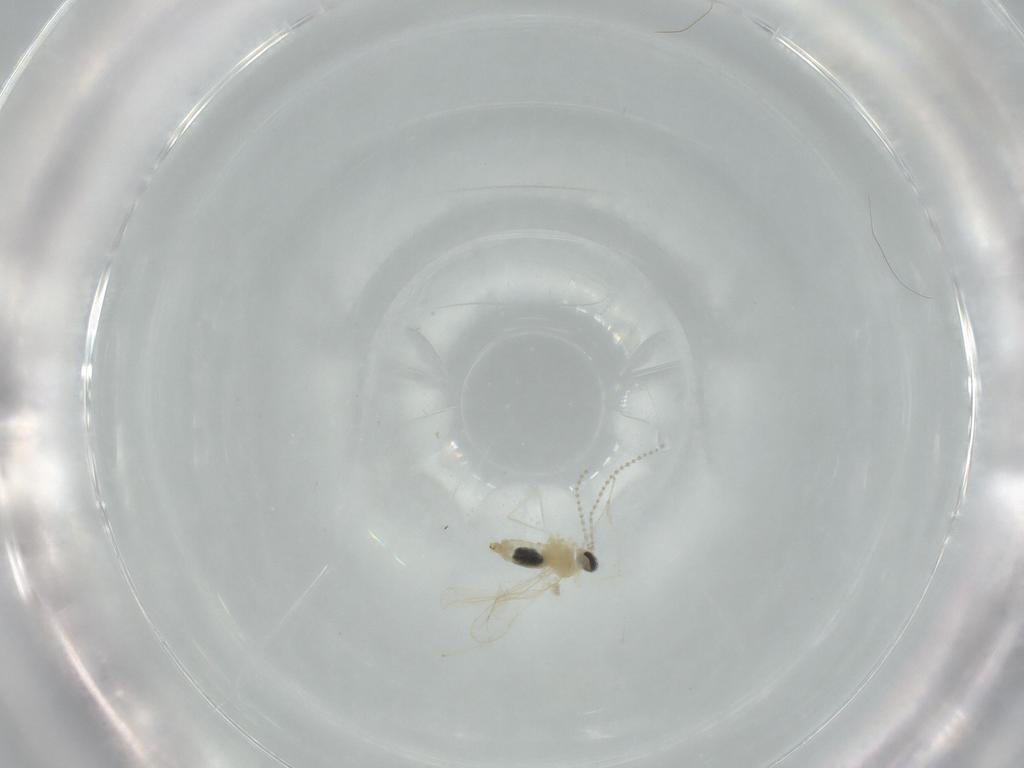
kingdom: Animalia
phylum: Arthropoda
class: Insecta
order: Diptera
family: Cecidomyiidae
